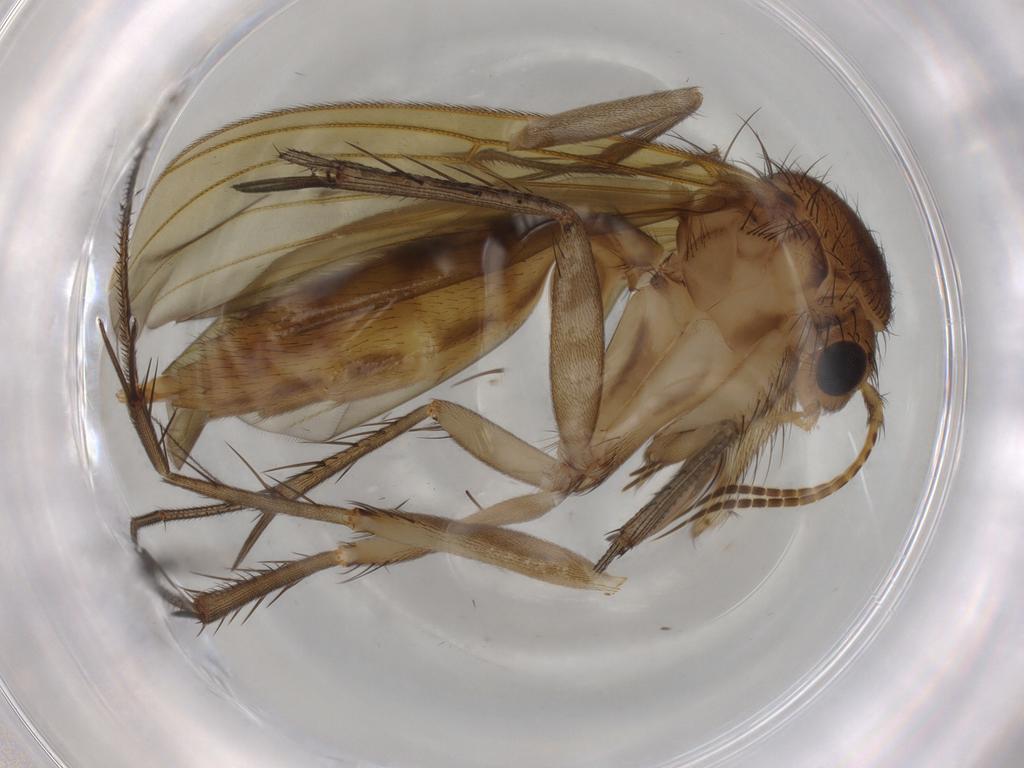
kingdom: Animalia
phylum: Arthropoda
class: Insecta
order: Diptera
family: Mycetophilidae
